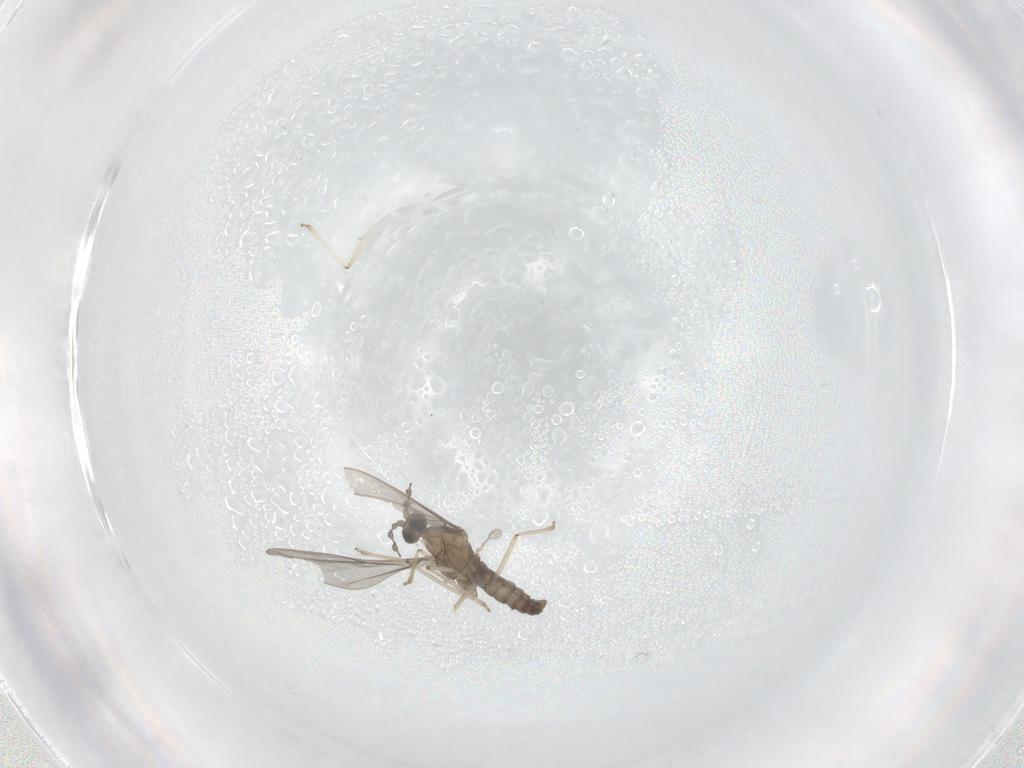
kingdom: Animalia
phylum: Arthropoda
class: Insecta
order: Diptera
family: Cecidomyiidae
